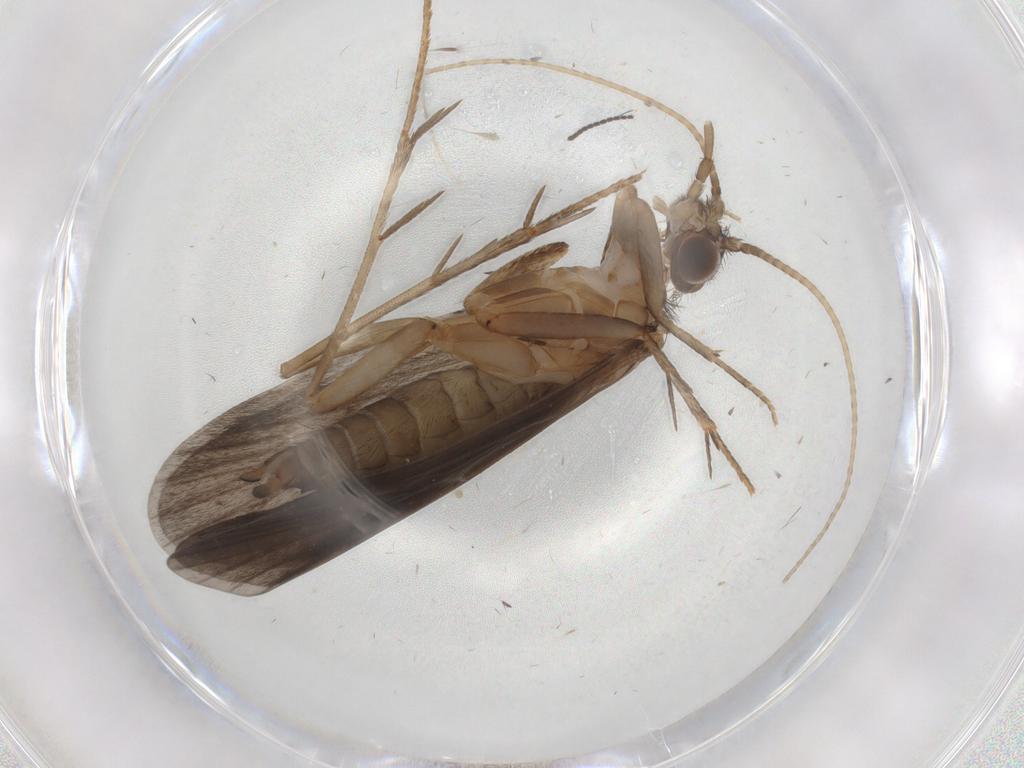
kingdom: Animalia
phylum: Arthropoda
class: Insecta
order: Trichoptera
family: Philopotamidae
